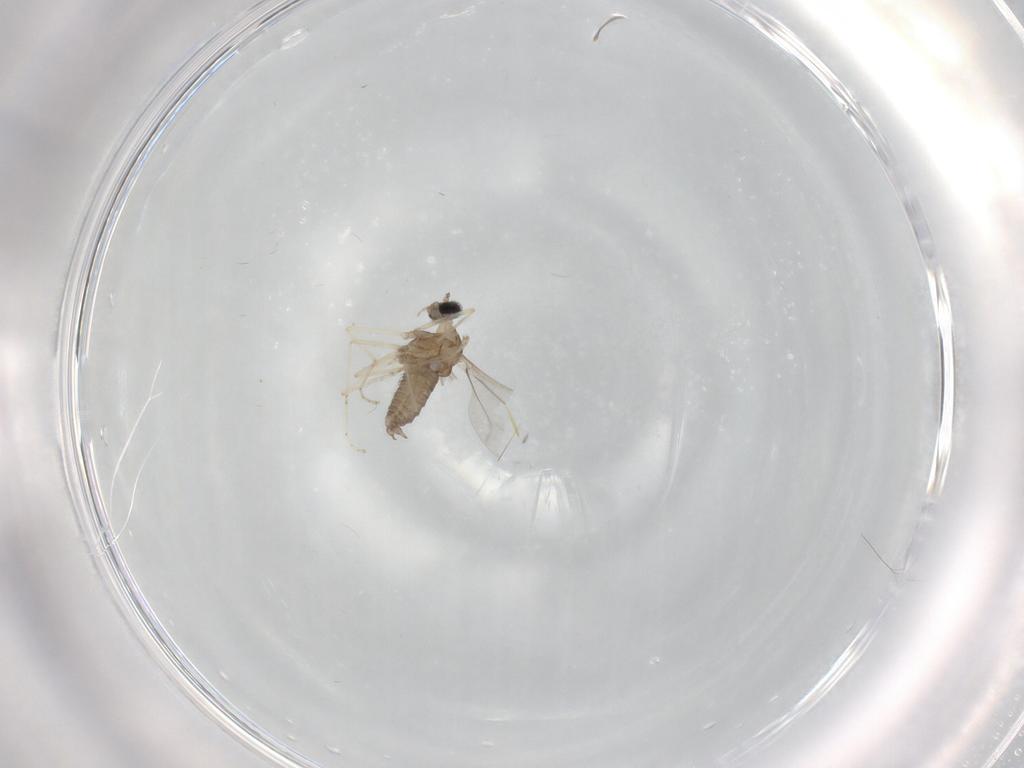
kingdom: Animalia
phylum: Arthropoda
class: Insecta
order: Diptera
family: Cecidomyiidae
